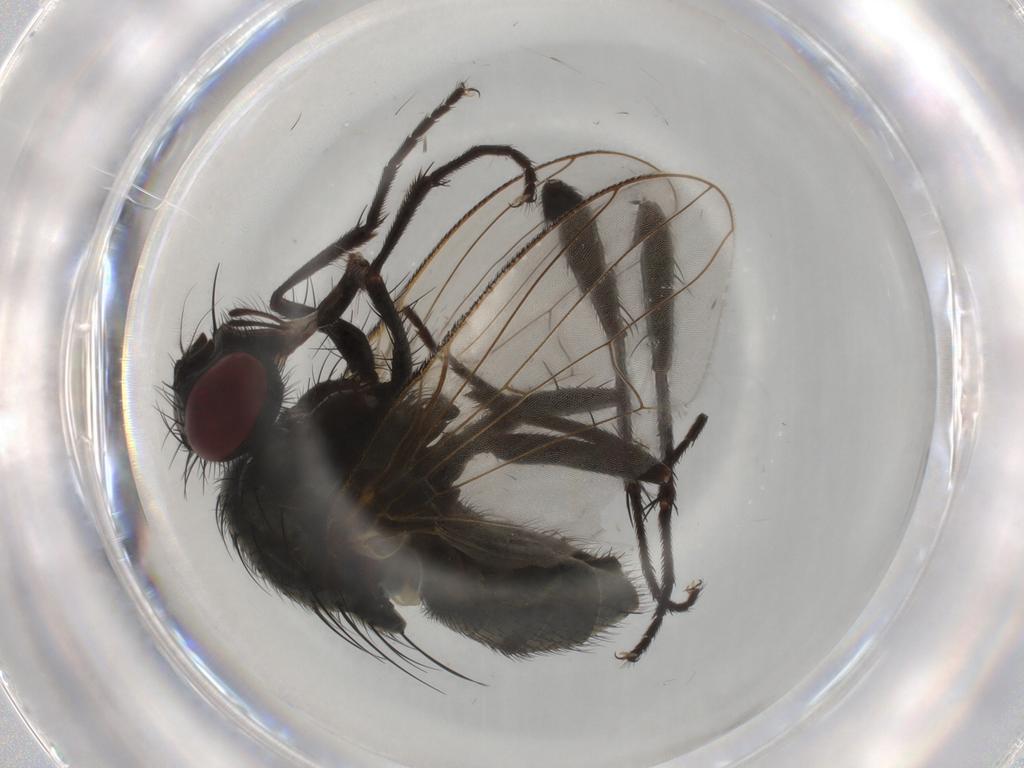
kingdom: Animalia
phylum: Arthropoda
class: Insecta
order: Diptera
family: Muscidae
